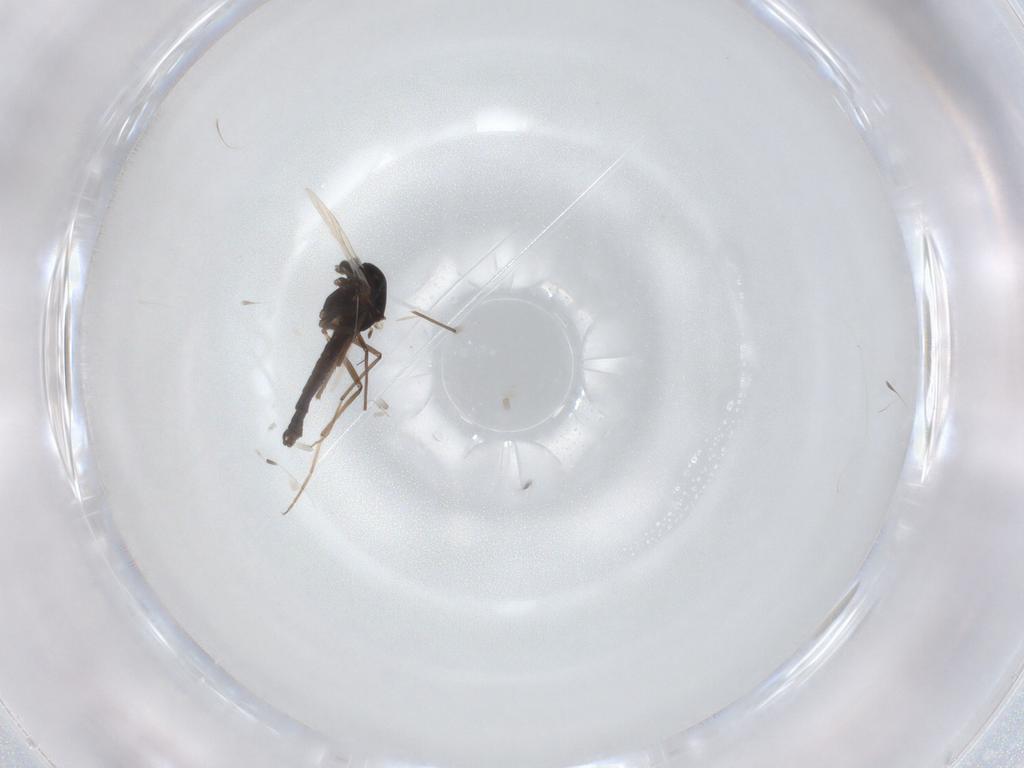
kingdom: Animalia
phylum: Arthropoda
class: Insecta
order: Diptera
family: Chironomidae
